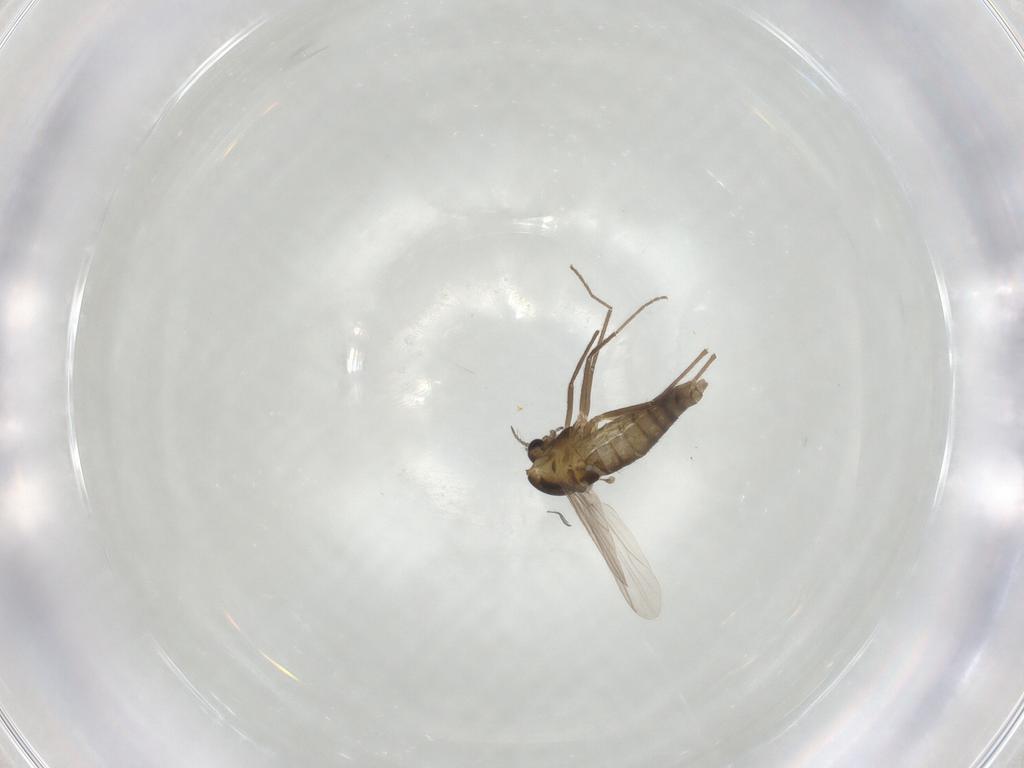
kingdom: Animalia
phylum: Arthropoda
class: Insecta
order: Diptera
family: Chironomidae
